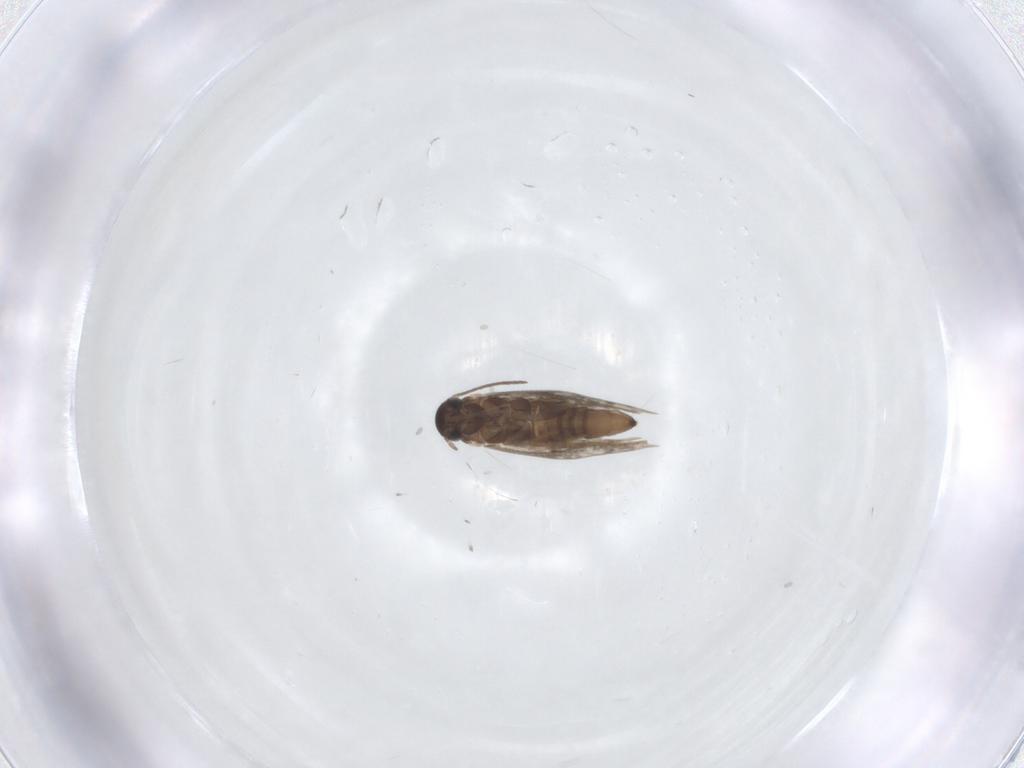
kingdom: Animalia
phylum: Arthropoda
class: Insecta
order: Lepidoptera
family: Heliozelidae
